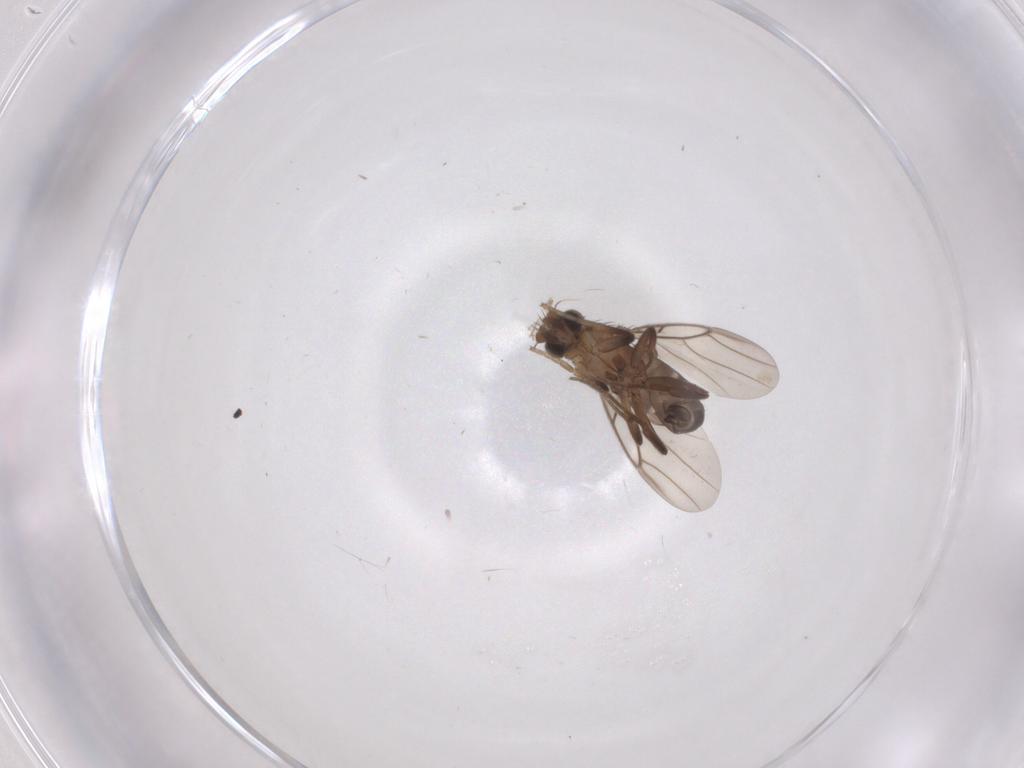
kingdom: Animalia
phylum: Arthropoda
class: Insecta
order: Diptera
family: Phoridae
